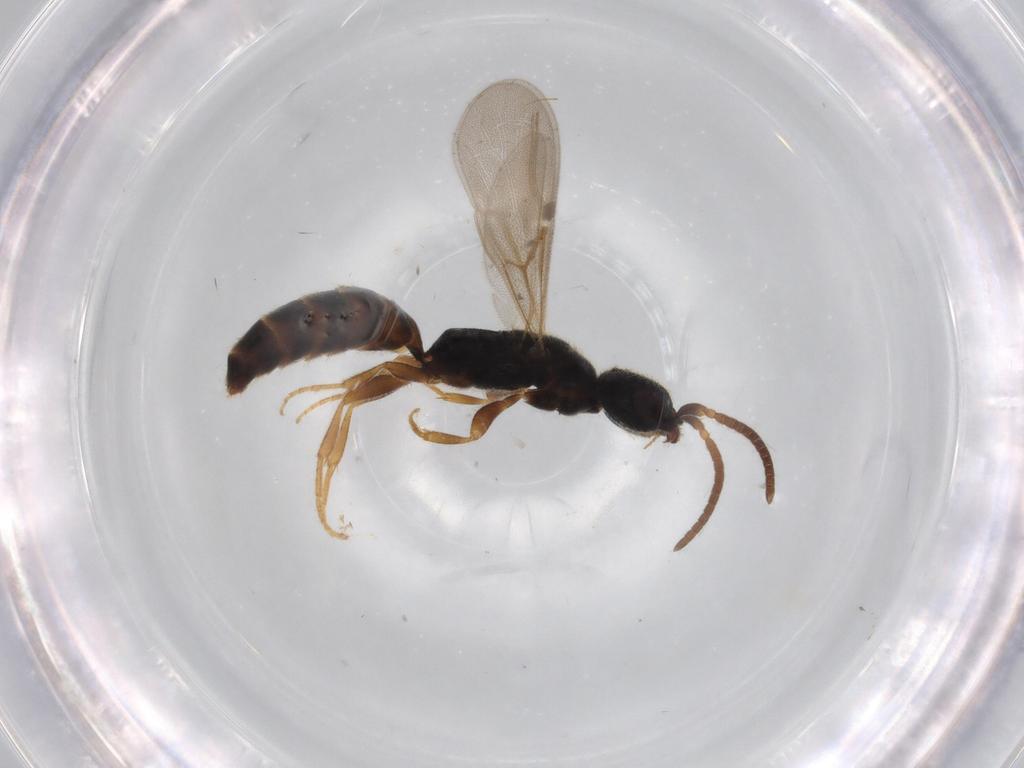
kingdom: Animalia
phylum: Arthropoda
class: Insecta
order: Hymenoptera
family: Bethylidae
